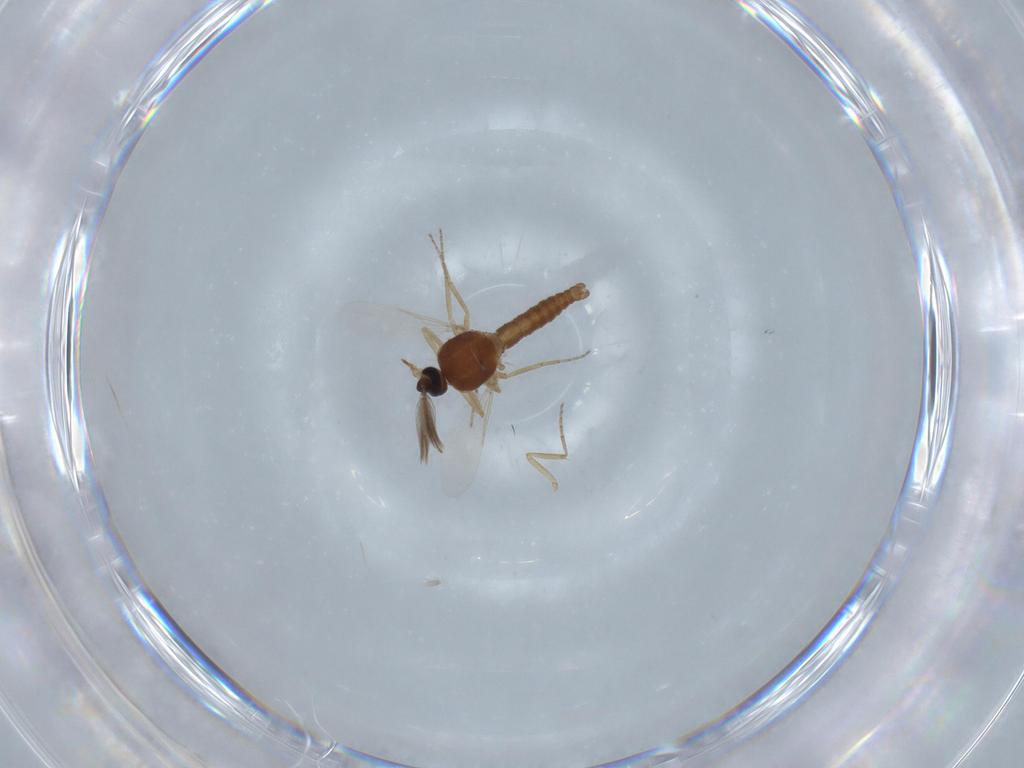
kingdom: Animalia
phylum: Arthropoda
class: Insecta
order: Diptera
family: Ceratopogonidae
